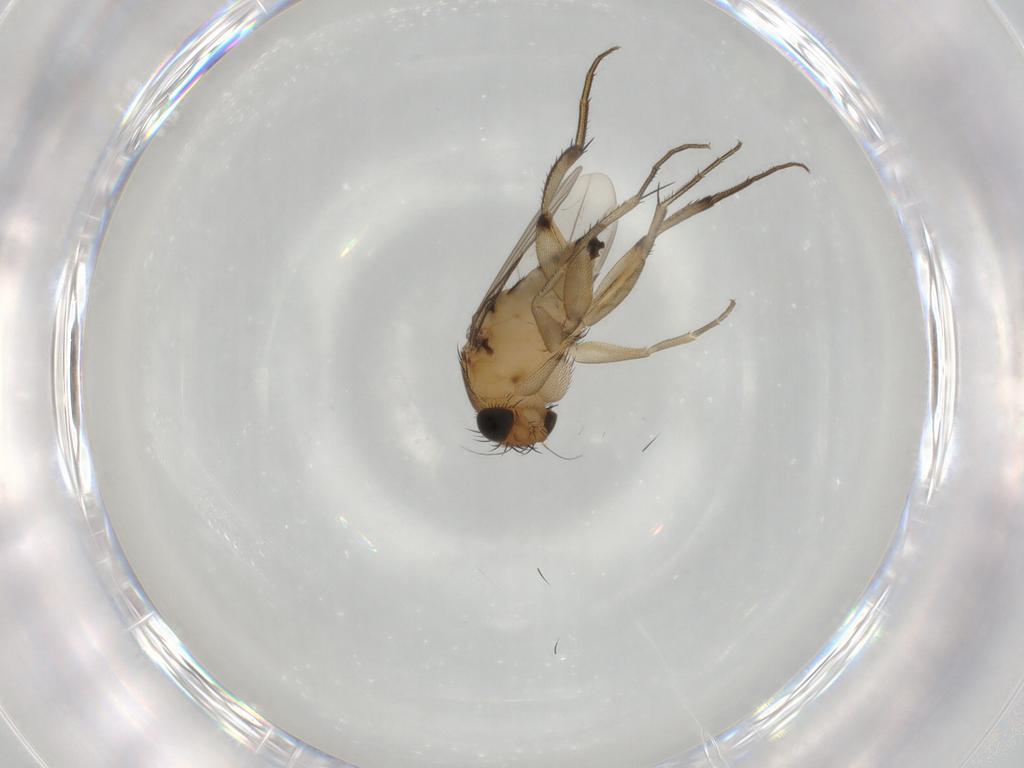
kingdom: Animalia
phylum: Arthropoda
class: Insecta
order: Diptera
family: Phoridae
